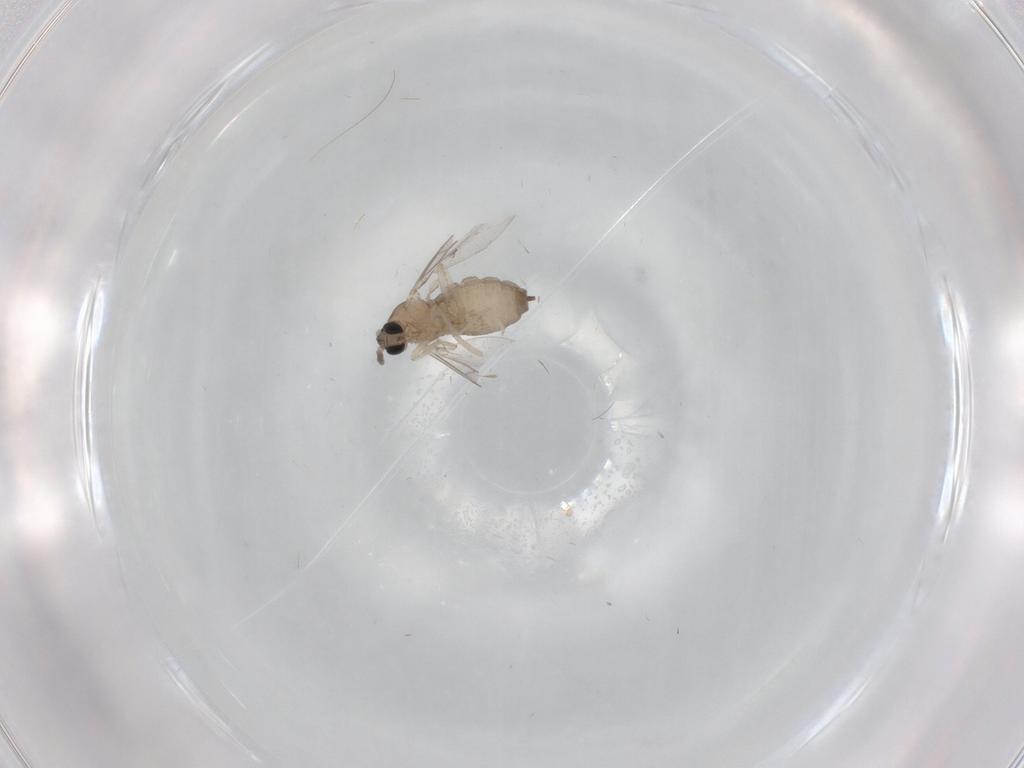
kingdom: Animalia
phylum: Arthropoda
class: Insecta
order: Diptera
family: Cecidomyiidae
